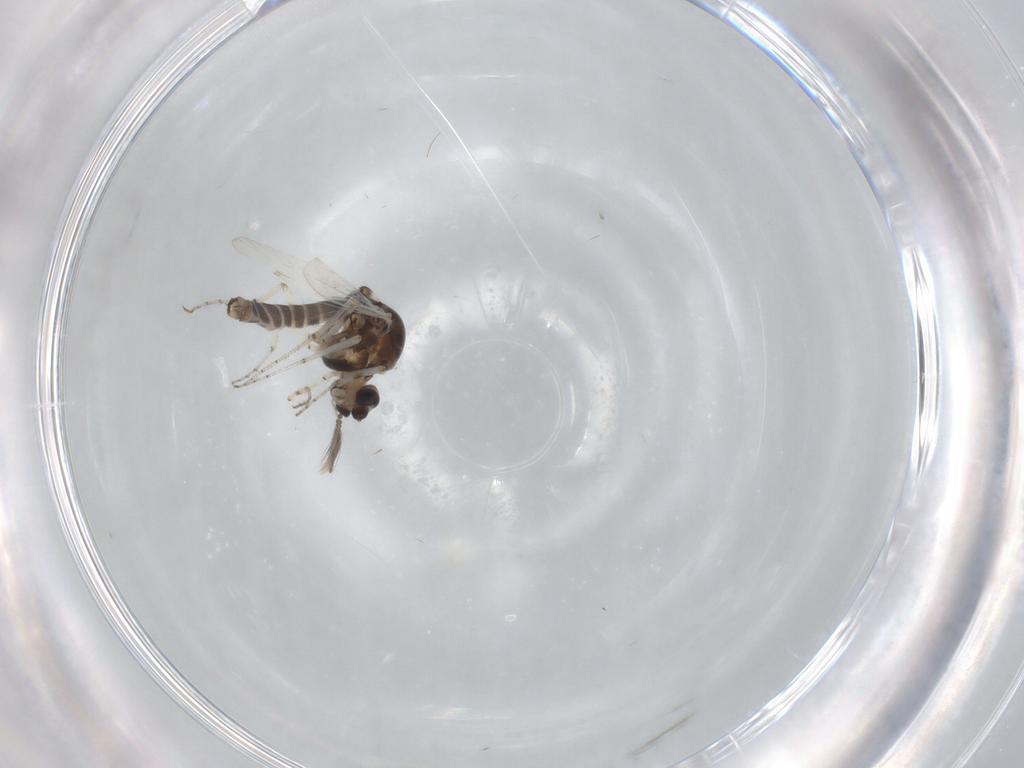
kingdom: Animalia
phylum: Arthropoda
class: Insecta
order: Diptera
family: Ceratopogonidae
